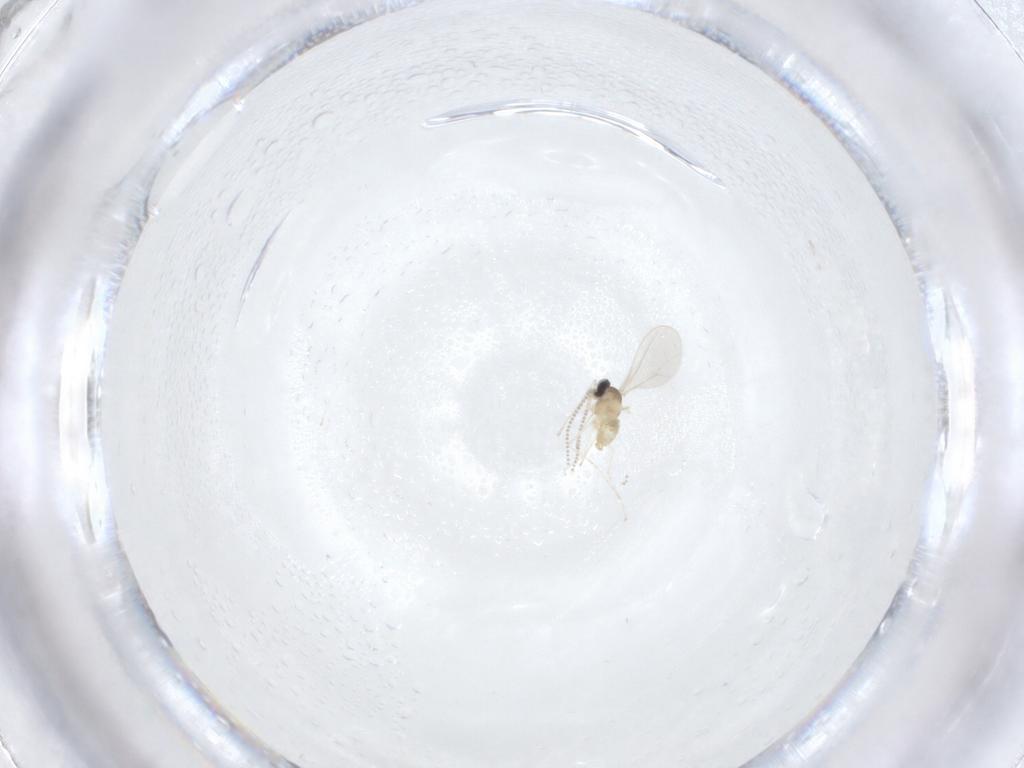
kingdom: Animalia
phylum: Arthropoda
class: Insecta
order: Diptera
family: Cecidomyiidae
